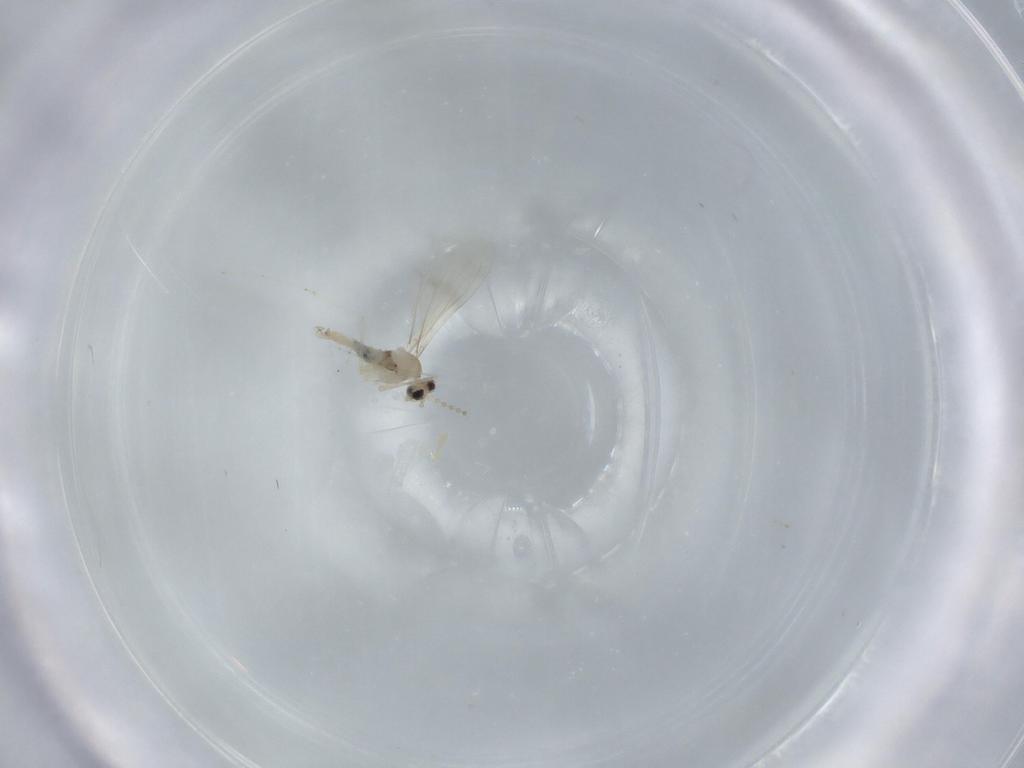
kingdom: Animalia
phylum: Arthropoda
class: Insecta
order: Diptera
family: Cecidomyiidae
